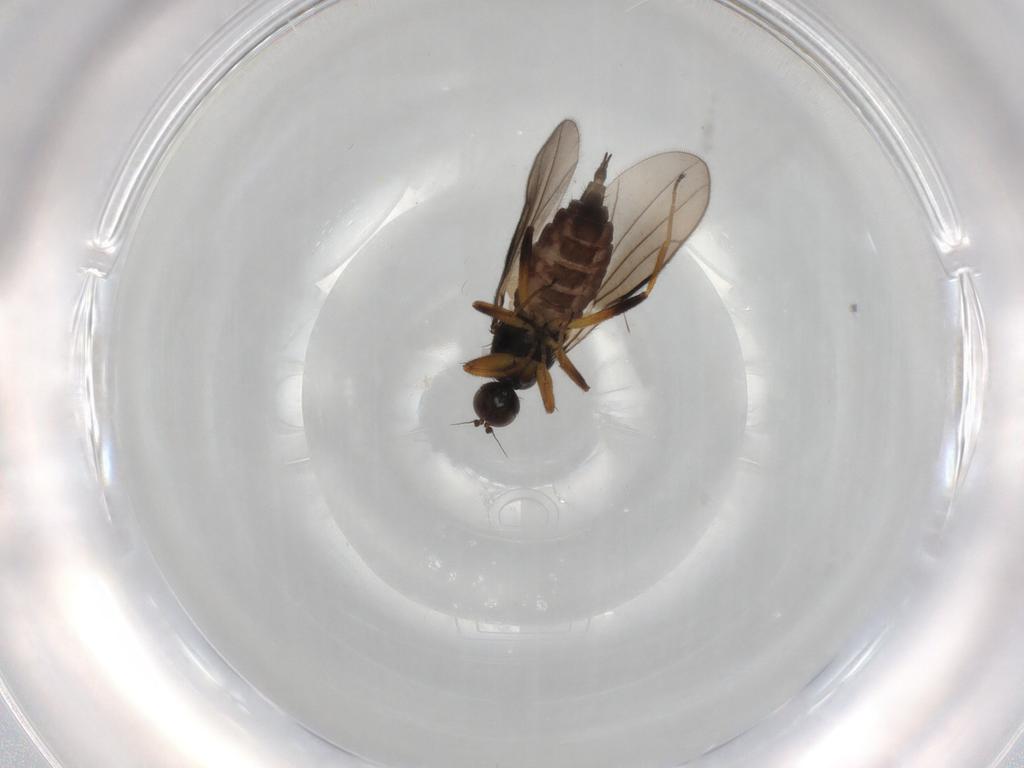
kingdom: Animalia
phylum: Arthropoda
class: Insecta
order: Diptera
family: Hybotidae
